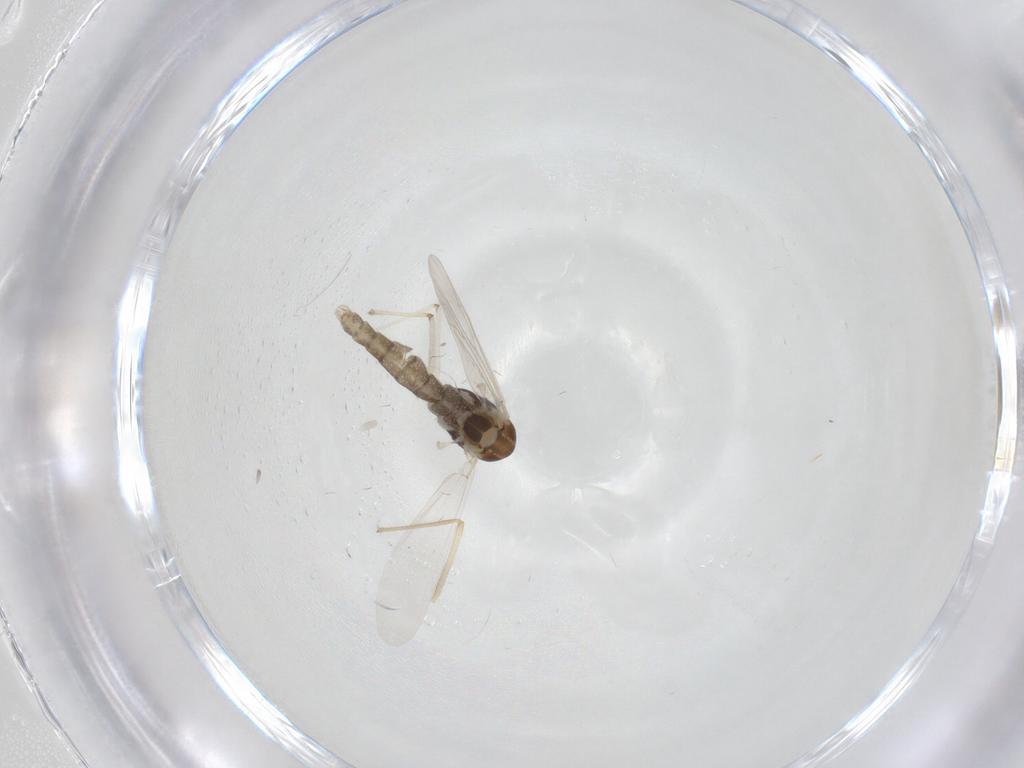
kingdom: Animalia
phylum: Arthropoda
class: Insecta
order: Diptera
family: Chironomidae
